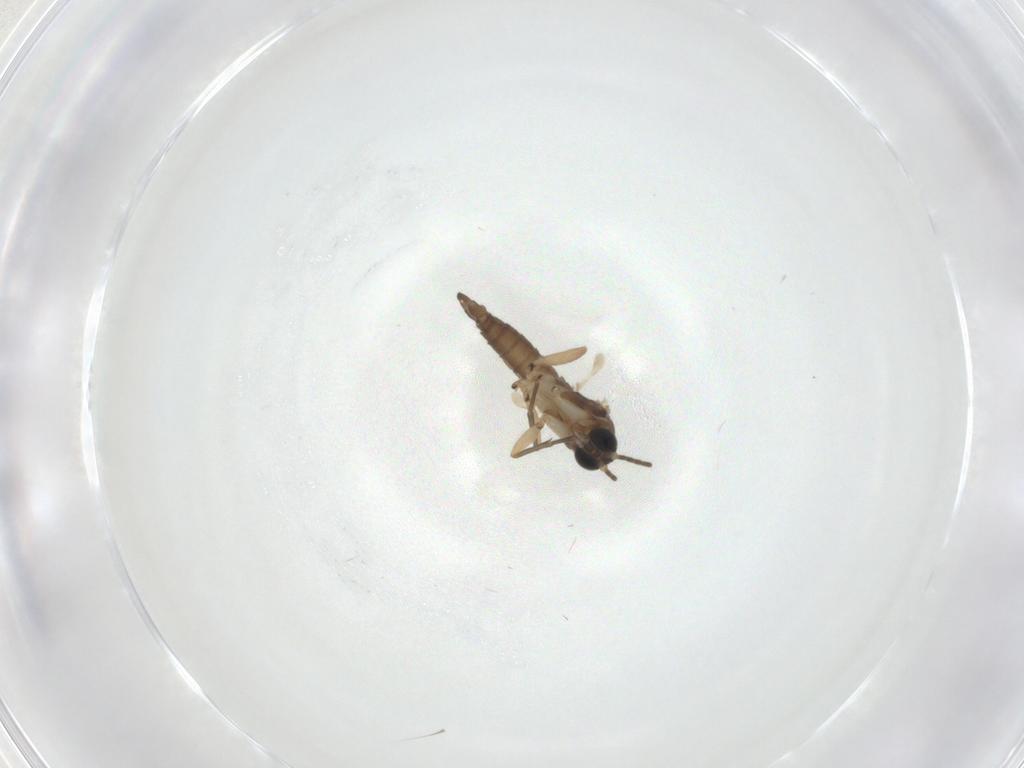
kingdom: Animalia
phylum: Arthropoda
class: Insecta
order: Diptera
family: Sciaridae
